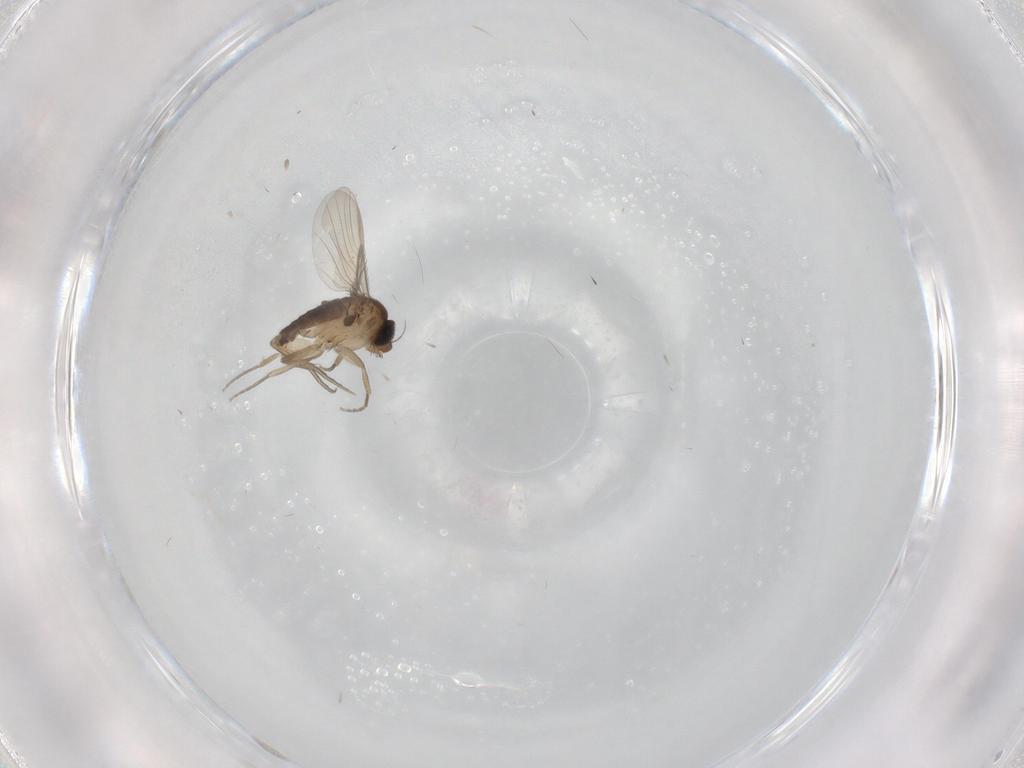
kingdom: Animalia
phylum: Arthropoda
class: Insecta
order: Diptera
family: Phoridae
